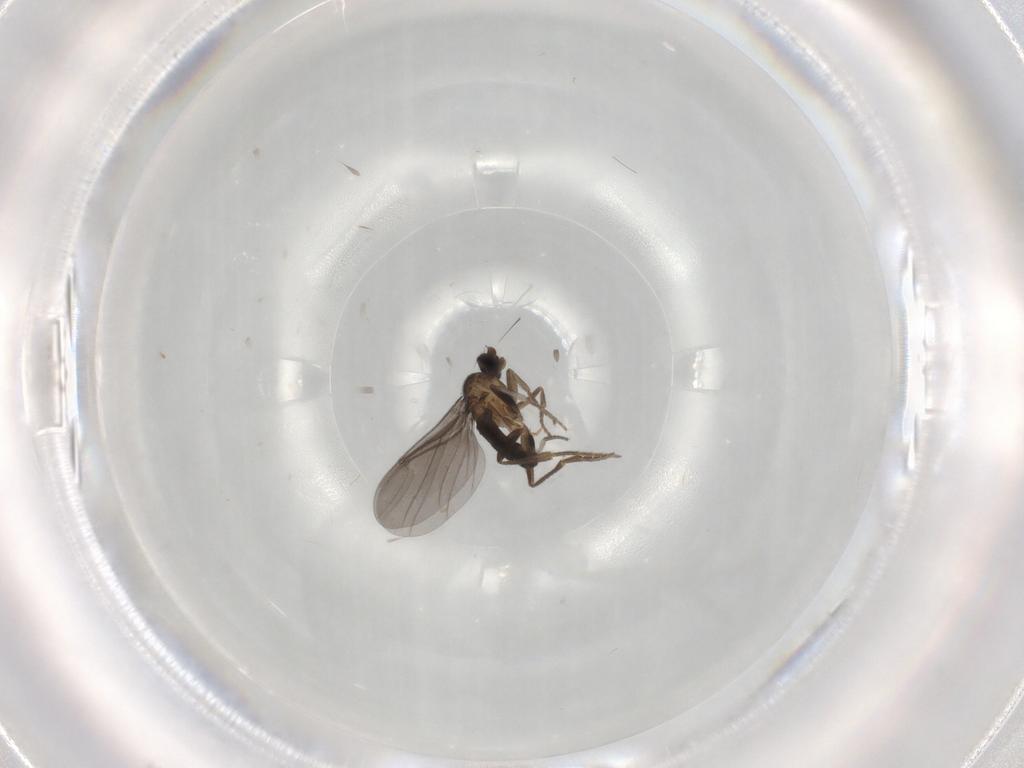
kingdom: Animalia
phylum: Arthropoda
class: Insecta
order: Diptera
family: Phoridae
